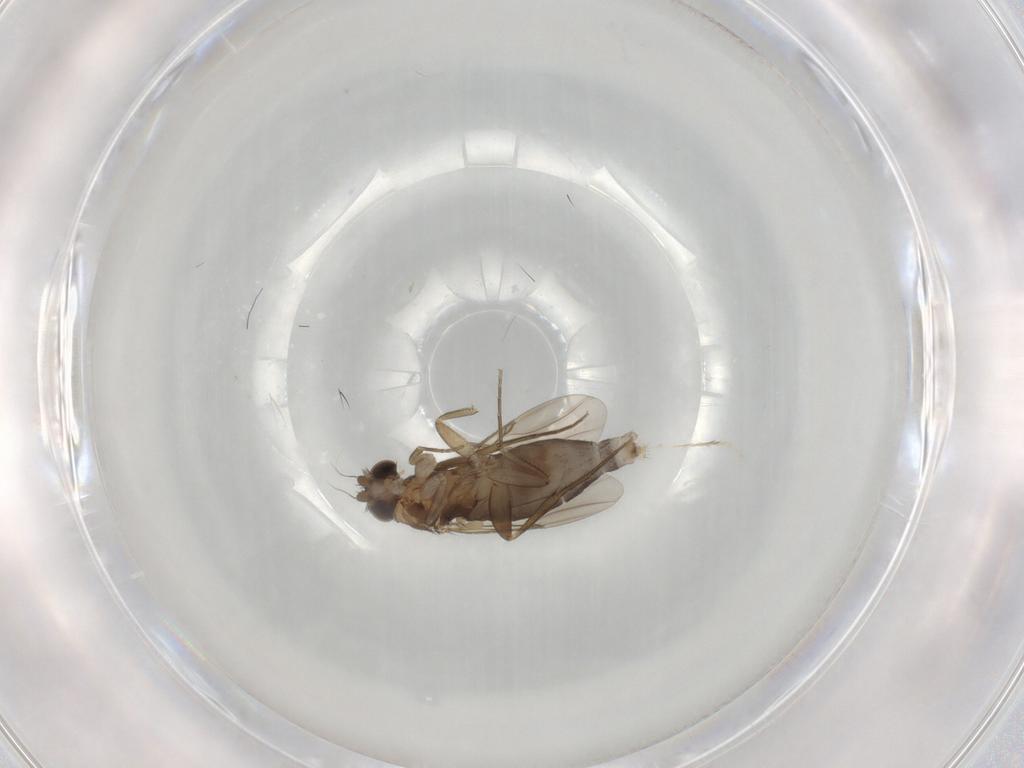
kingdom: Animalia
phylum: Arthropoda
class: Insecta
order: Diptera
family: Phoridae
